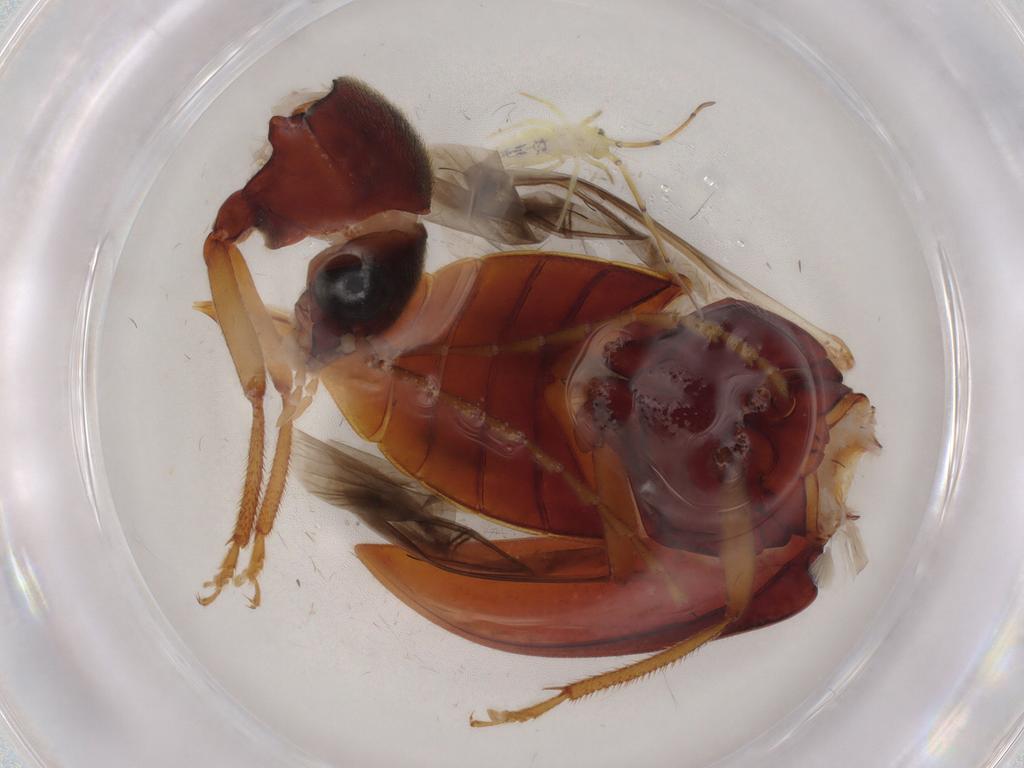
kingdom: Animalia
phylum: Arthropoda
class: Insecta
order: Coleoptera
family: Ptilodactylidae
